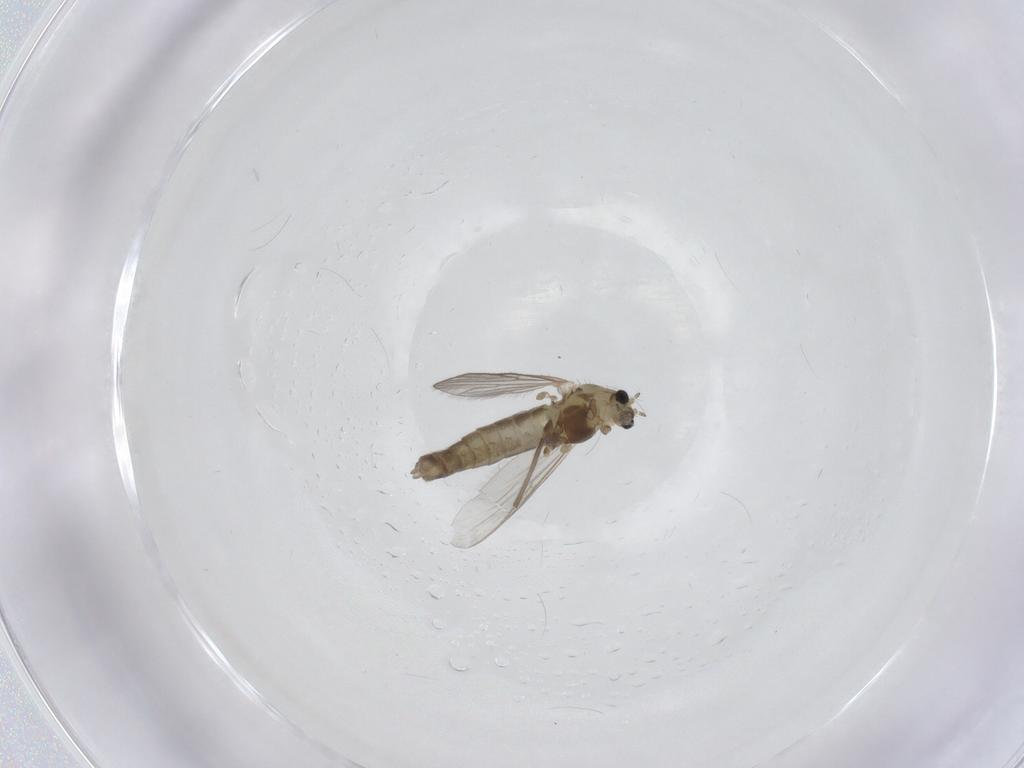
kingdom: Animalia
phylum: Arthropoda
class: Insecta
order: Diptera
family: Chironomidae
